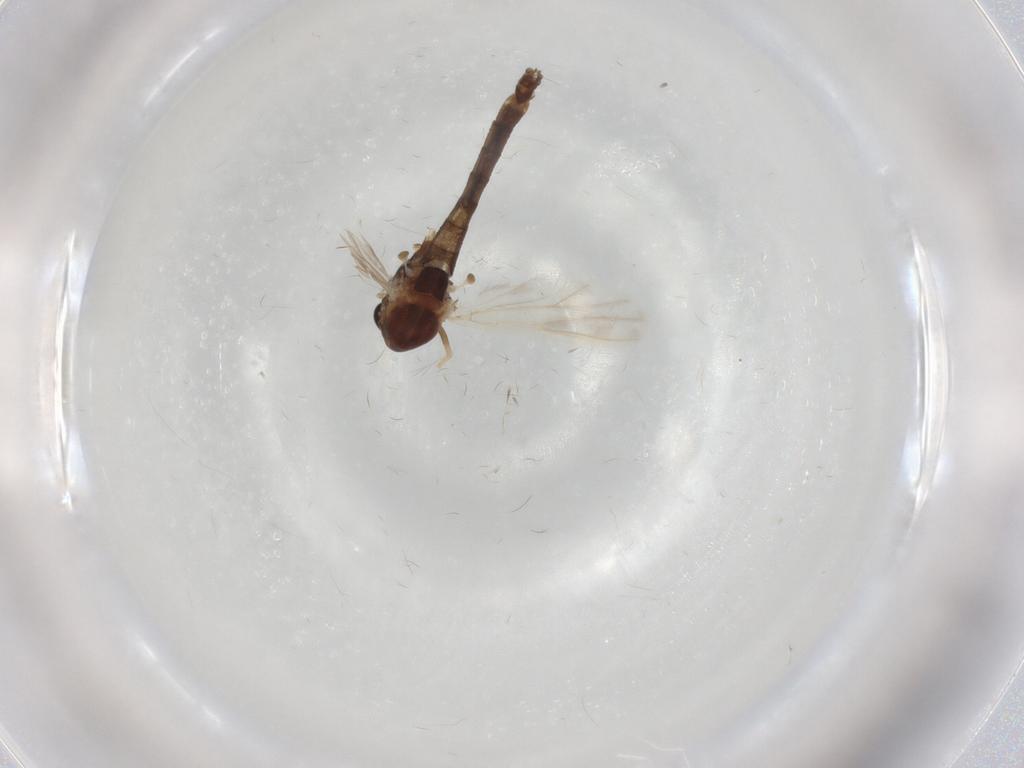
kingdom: Animalia
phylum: Arthropoda
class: Insecta
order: Diptera
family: Chironomidae
